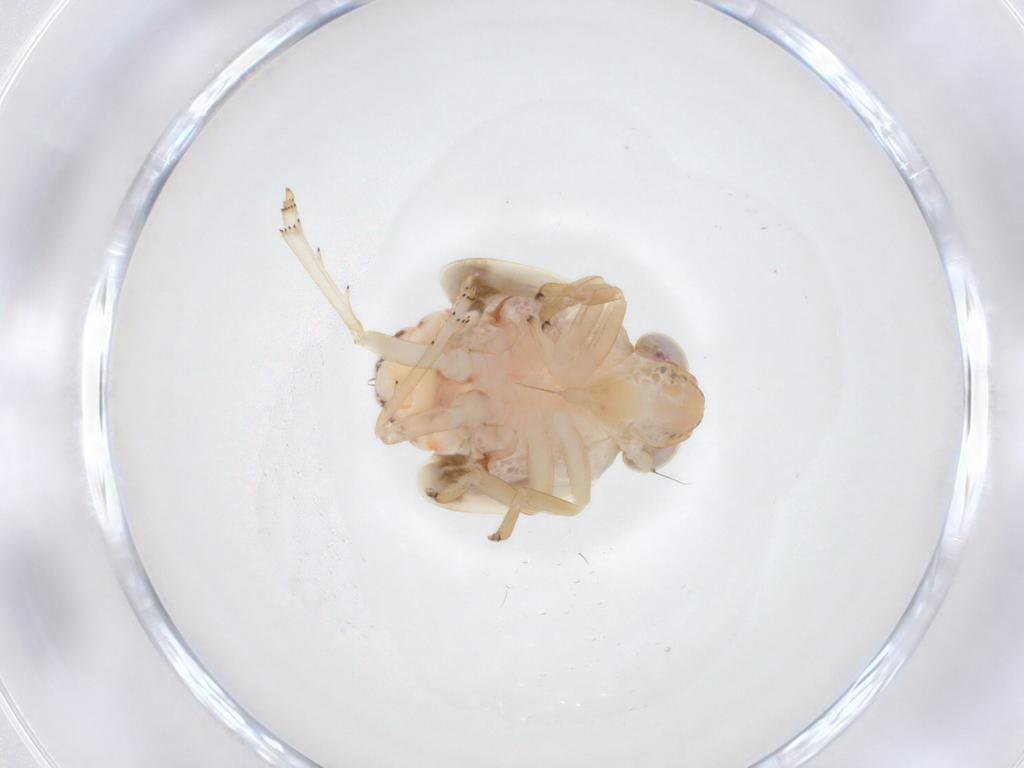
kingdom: Animalia
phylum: Arthropoda
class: Insecta
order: Hemiptera
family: Nogodinidae
